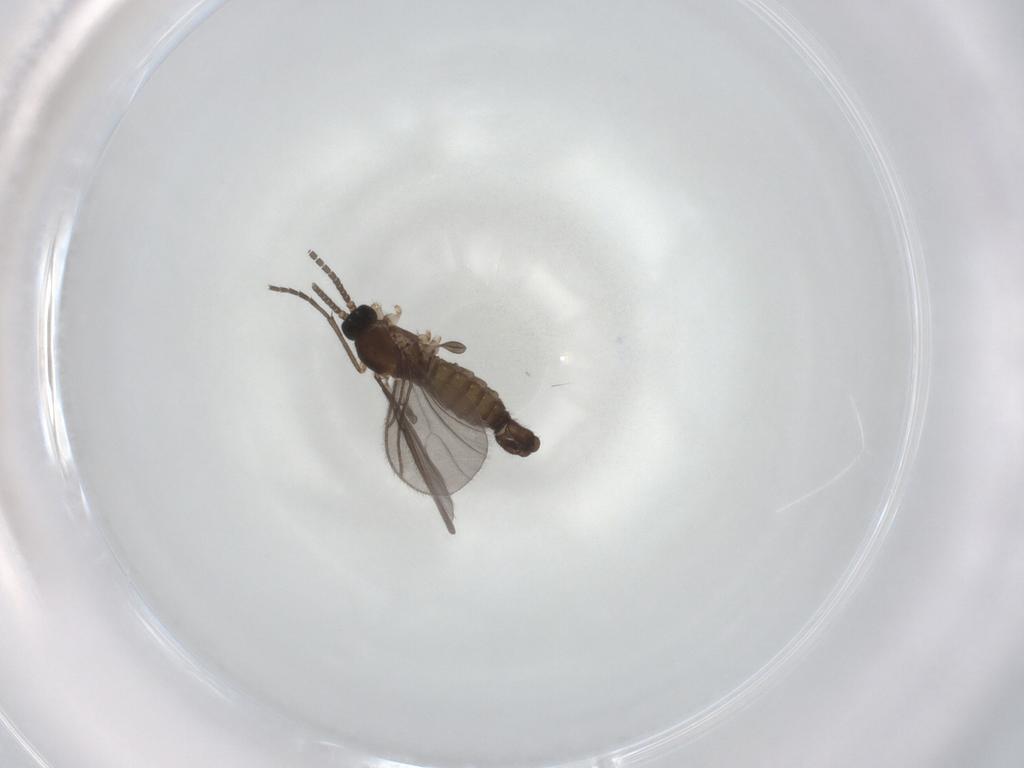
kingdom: Animalia
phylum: Arthropoda
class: Insecta
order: Diptera
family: Sciaridae
